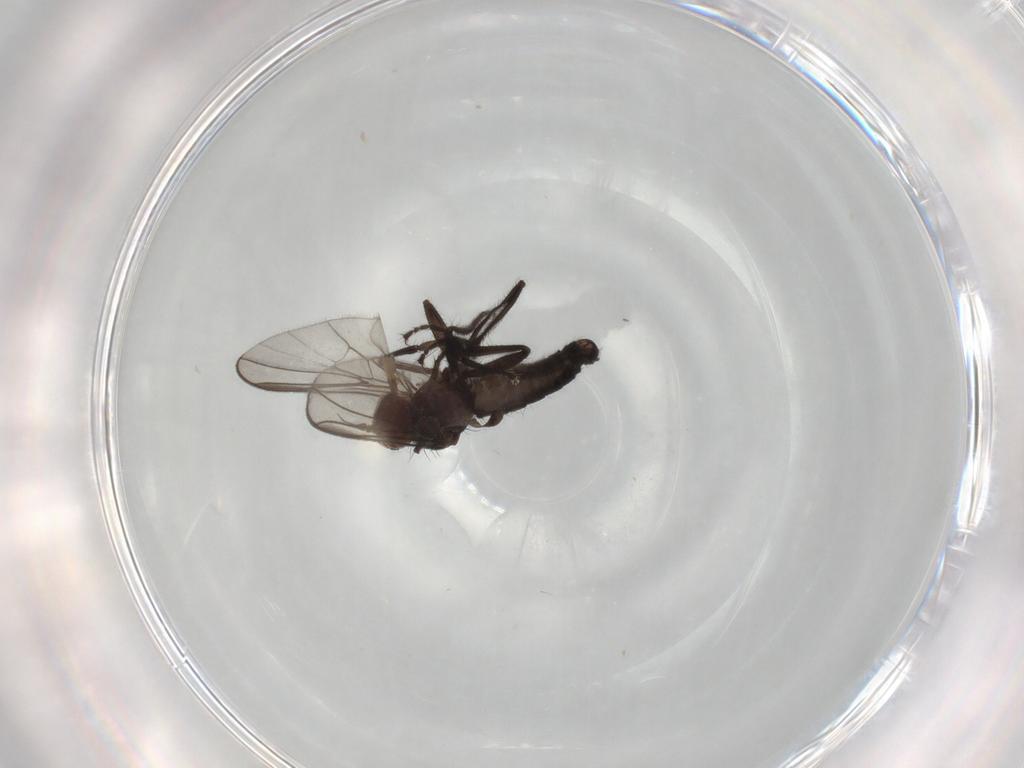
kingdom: Animalia
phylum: Arthropoda
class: Insecta
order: Diptera
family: Empididae
